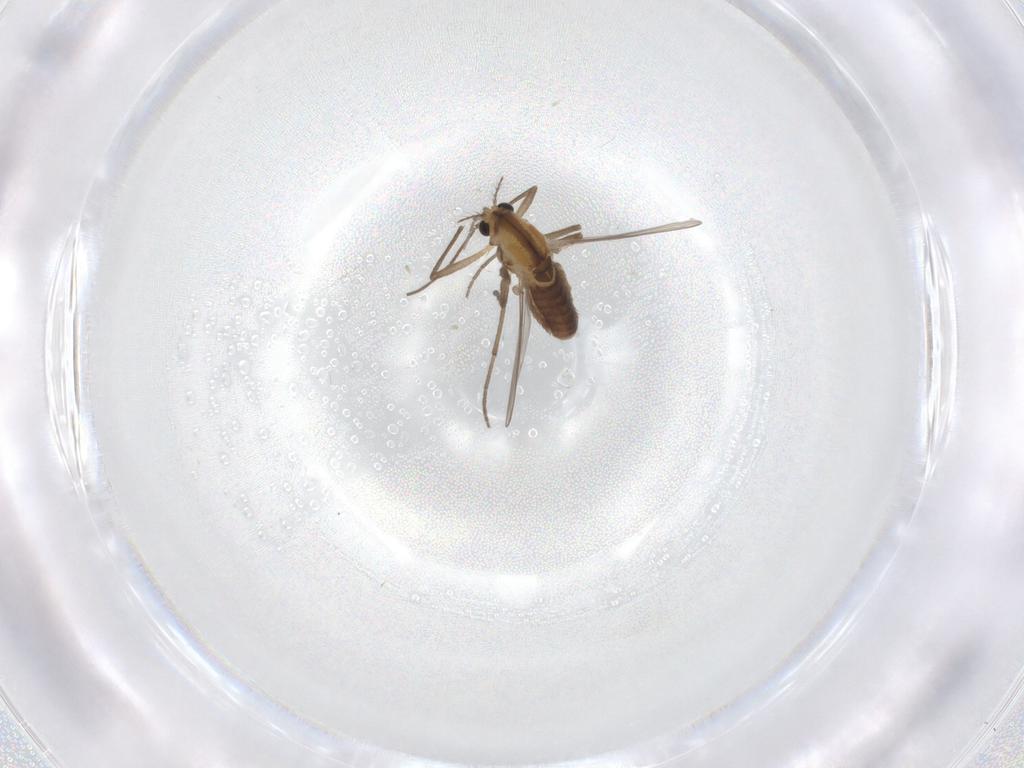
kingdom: Animalia
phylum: Arthropoda
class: Insecta
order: Diptera
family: Chironomidae
